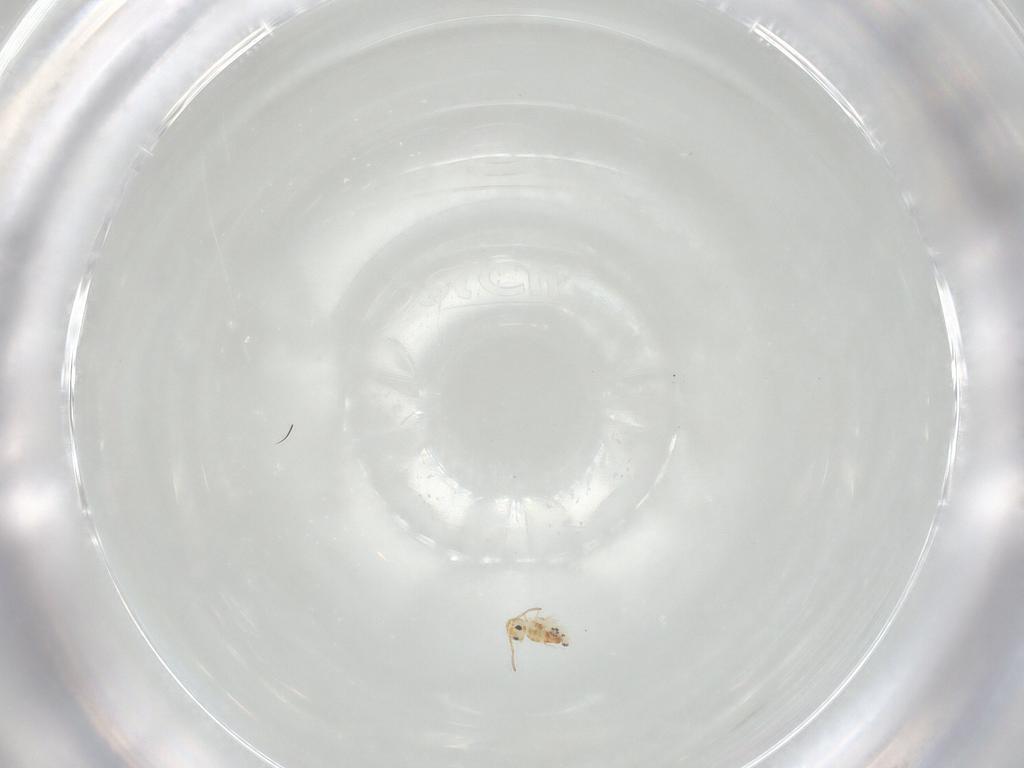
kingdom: Animalia
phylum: Arthropoda
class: Collembola
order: Symphypleona
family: Bourletiellidae
